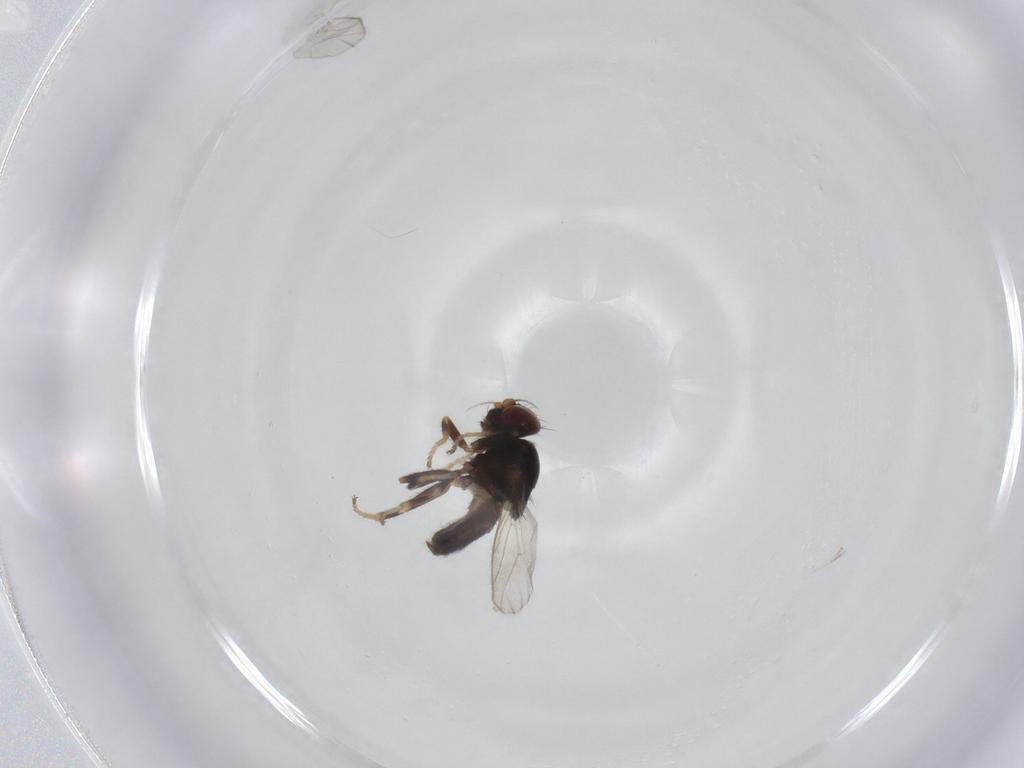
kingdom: Animalia
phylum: Arthropoda
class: Insecta
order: Diptera
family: Chloropidae
